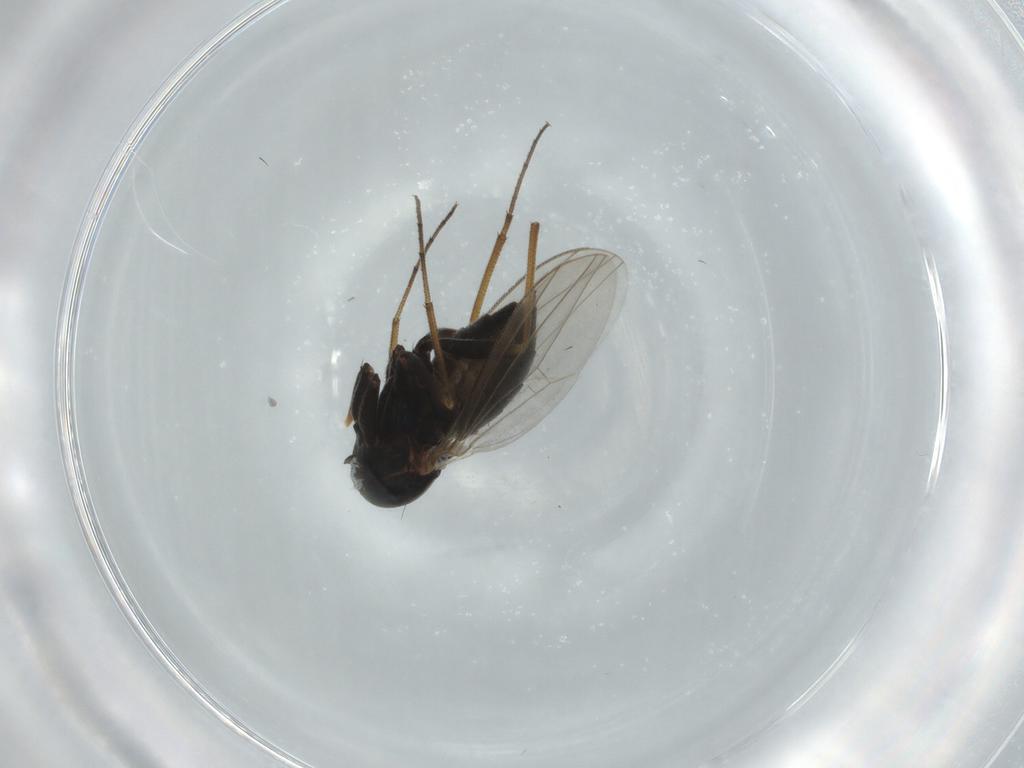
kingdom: Animalia
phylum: Arthropoda
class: Insecta
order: Diptera
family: Dolichopodidae
